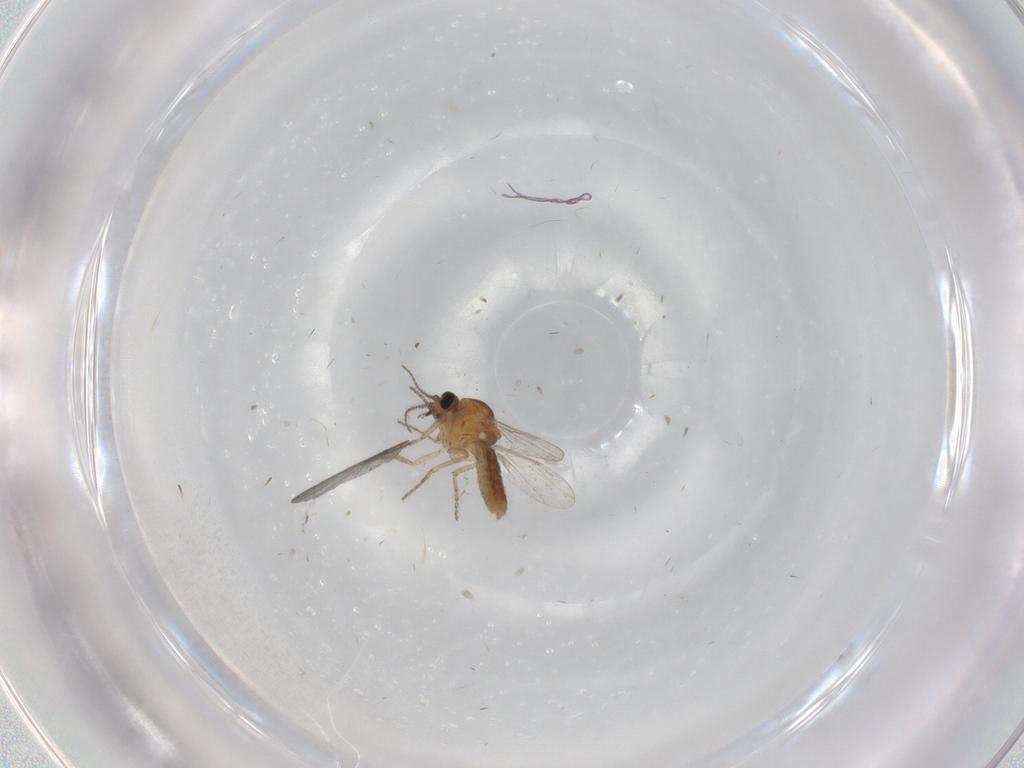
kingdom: Animalia
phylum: Arthropoda
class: Insecta
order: Diptera
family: Ceratopogonidae
